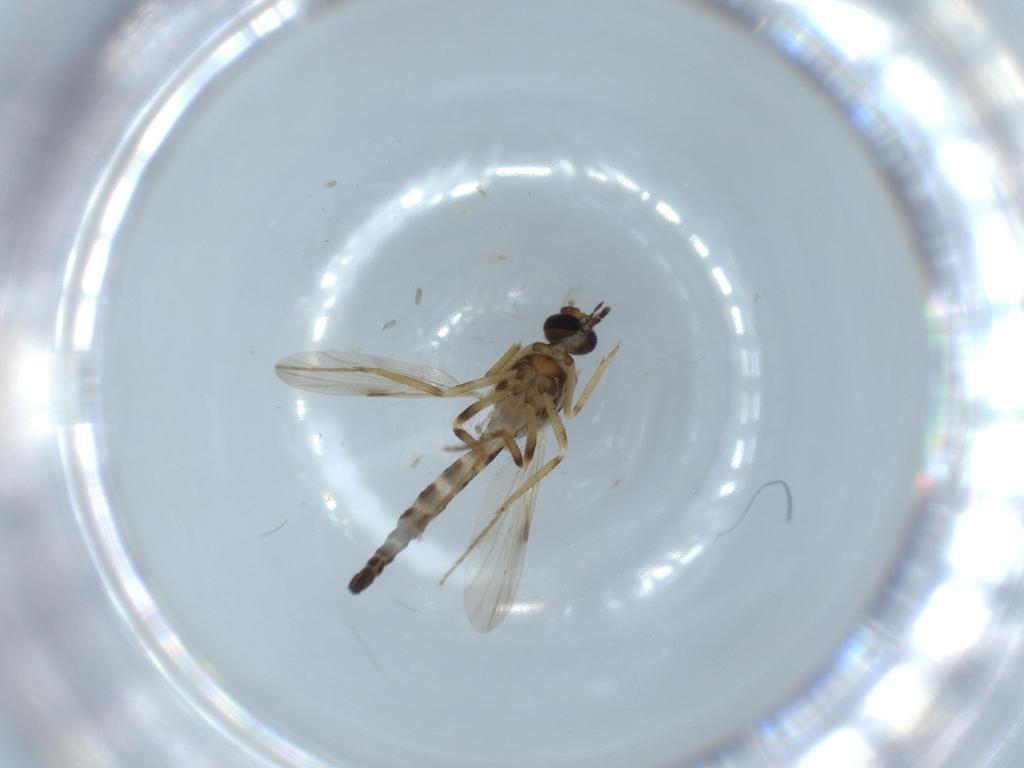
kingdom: Animalia
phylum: Arthropoda
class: Insecta
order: Diptera
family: Ceratopogonidae
